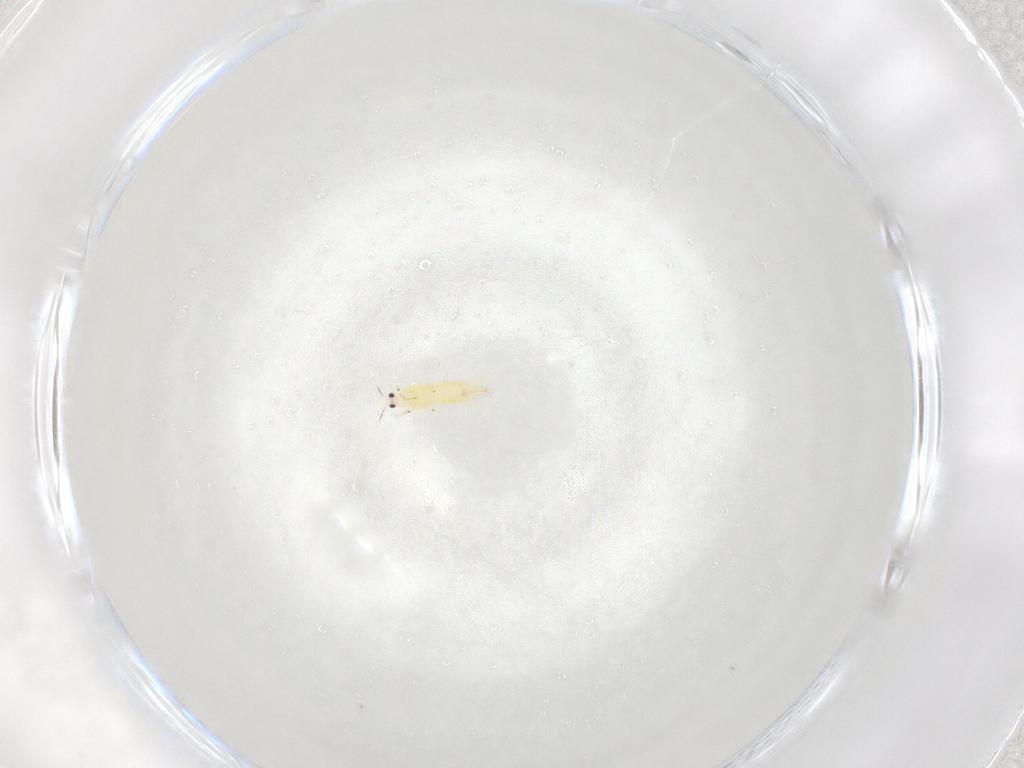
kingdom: Animalia
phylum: Arthropoda
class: Insecta
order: Thysanoptera
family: Thripidae
